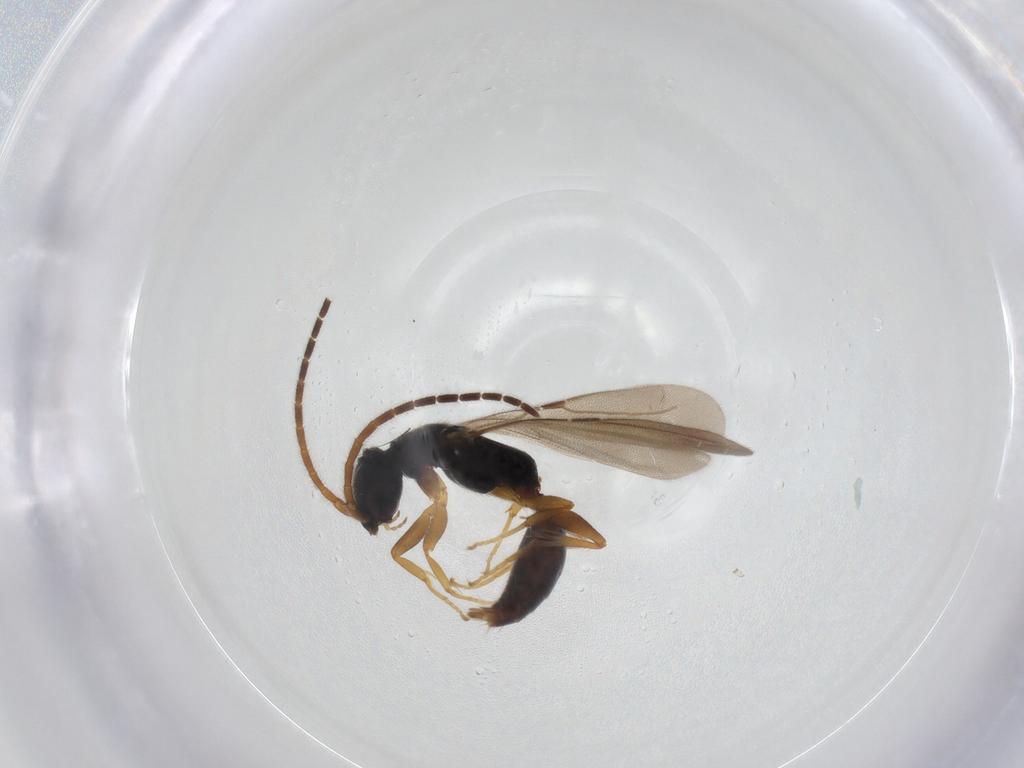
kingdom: Animalia
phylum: Arthropoda
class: Insecta
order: Hymenoptera
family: Bethylidae
